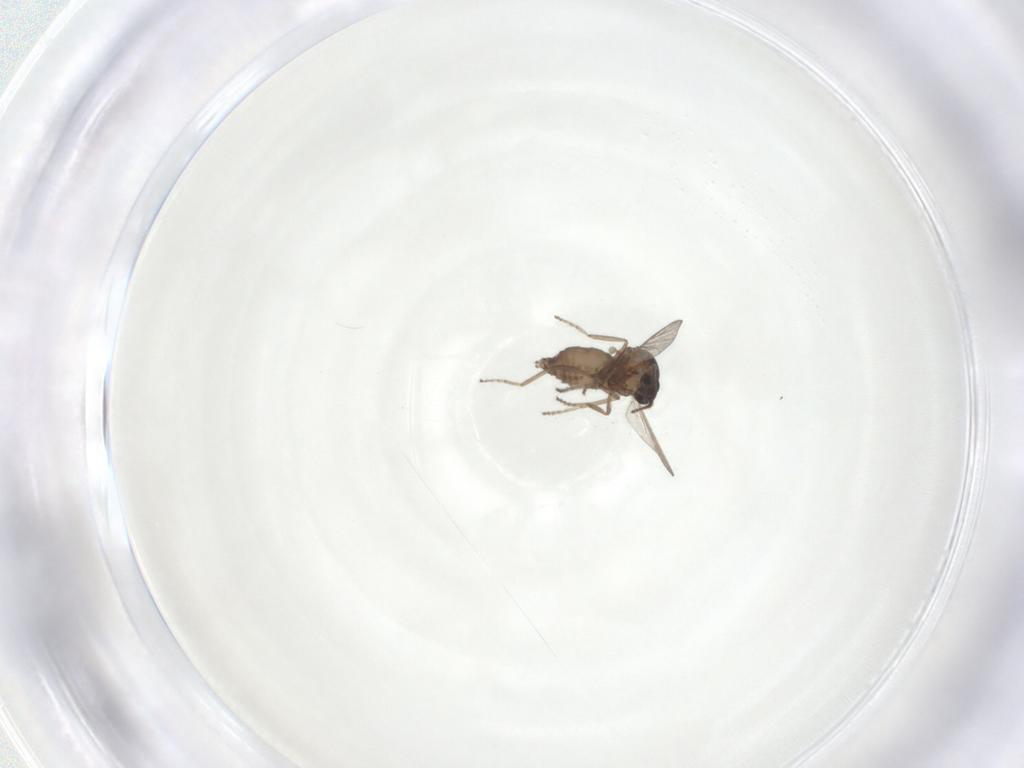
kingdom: Animalia
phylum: Arthropoda
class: Insecta
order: Diptera
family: Ceratopogonidae
